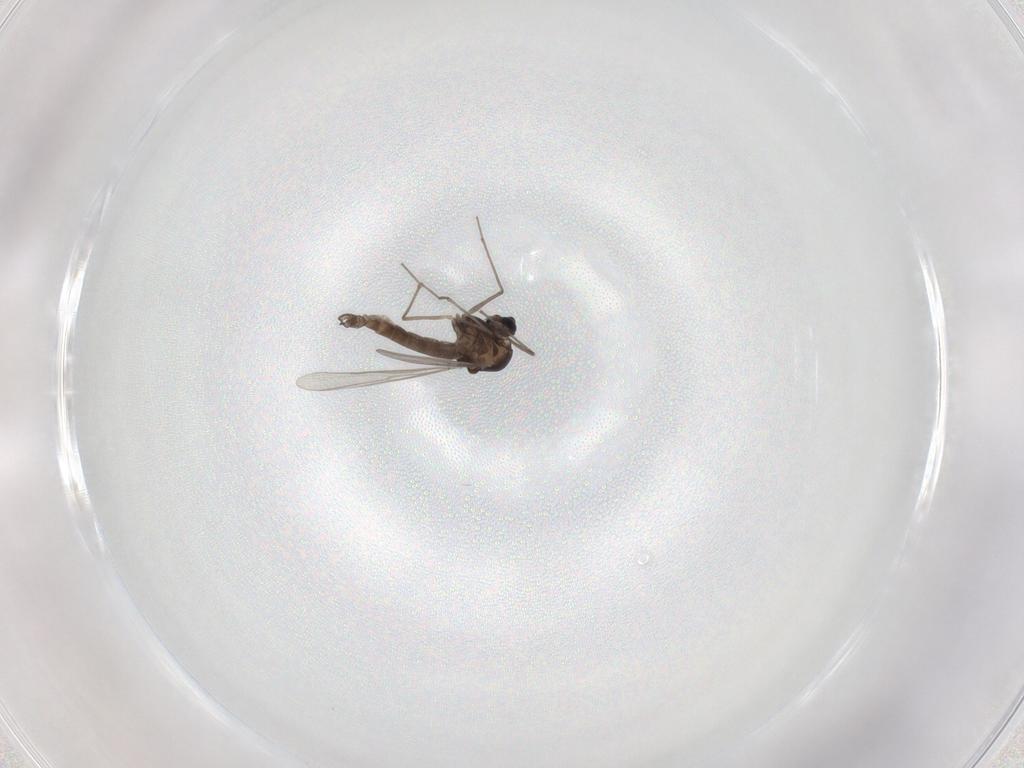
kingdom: Animalia
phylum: Arthropoda
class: Insecta
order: Diptera
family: Chironomidae
